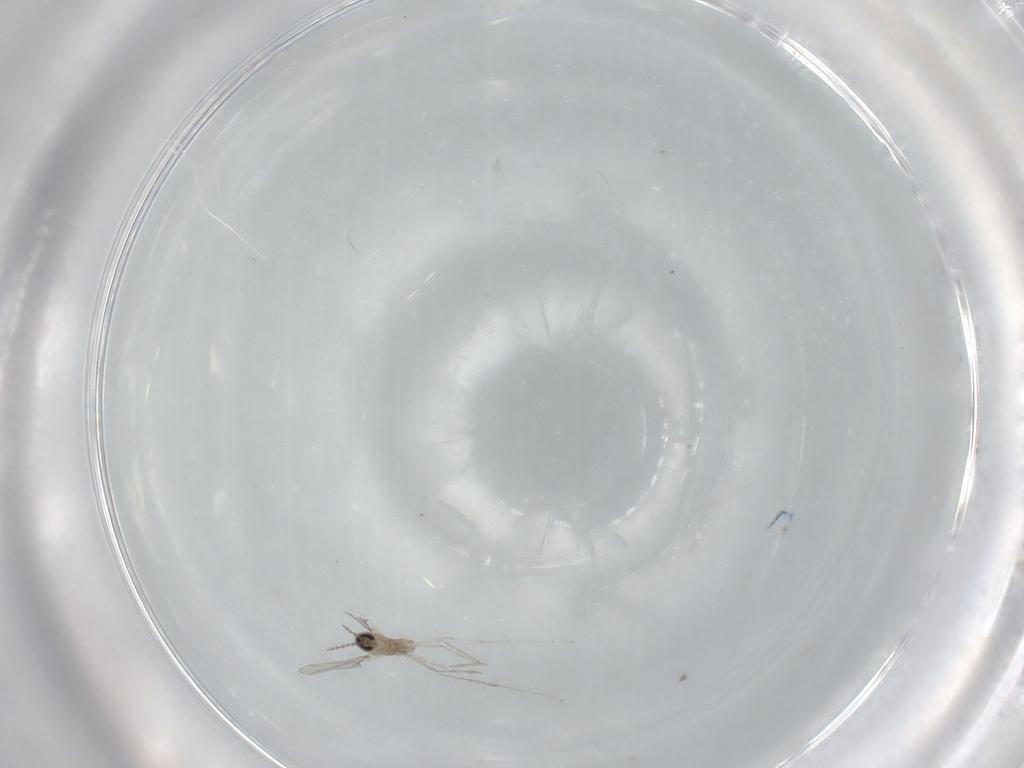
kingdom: Animalia
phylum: Arthropoda
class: Insecta
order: Diptera
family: Cecidomyiidae
